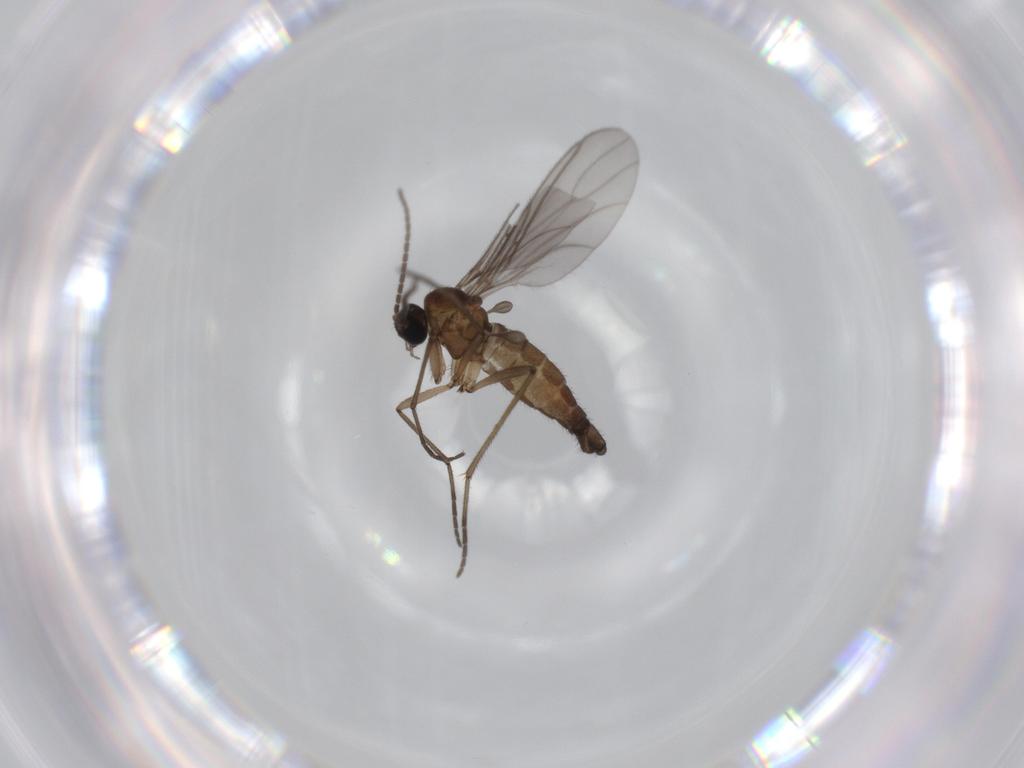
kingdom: Animalia
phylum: Arthropoda
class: Insecta
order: Diptera
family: Sciaridae
